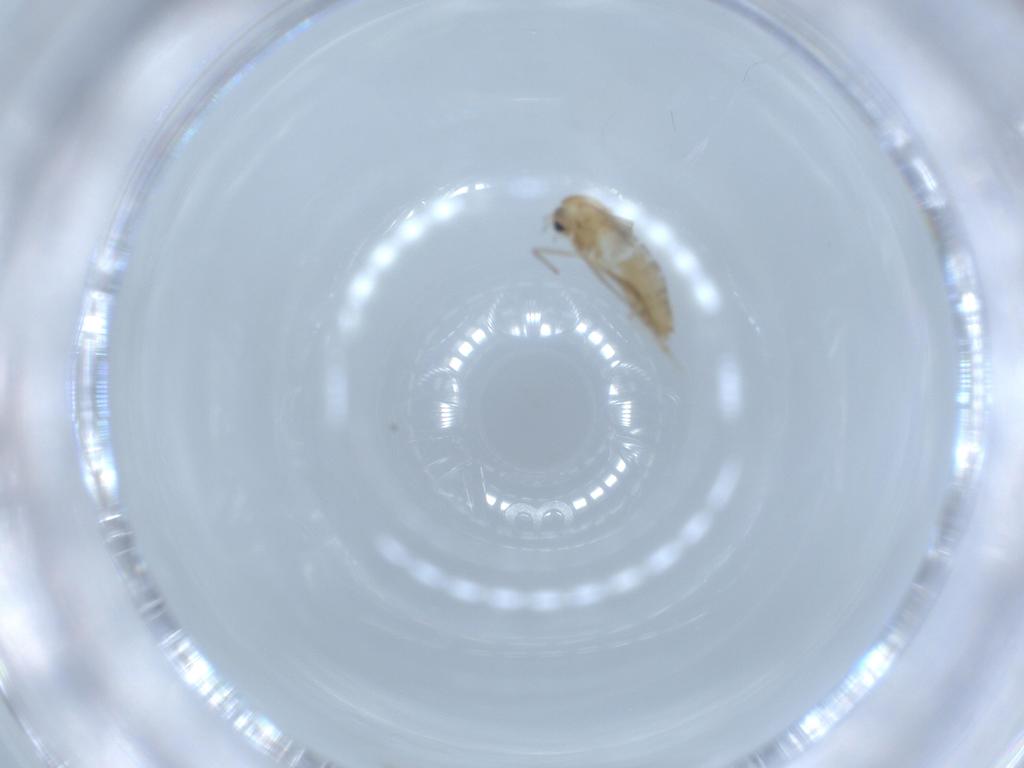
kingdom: Animalia
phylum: Arthropoda
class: Insecta
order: Diptera
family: Chironomidae
